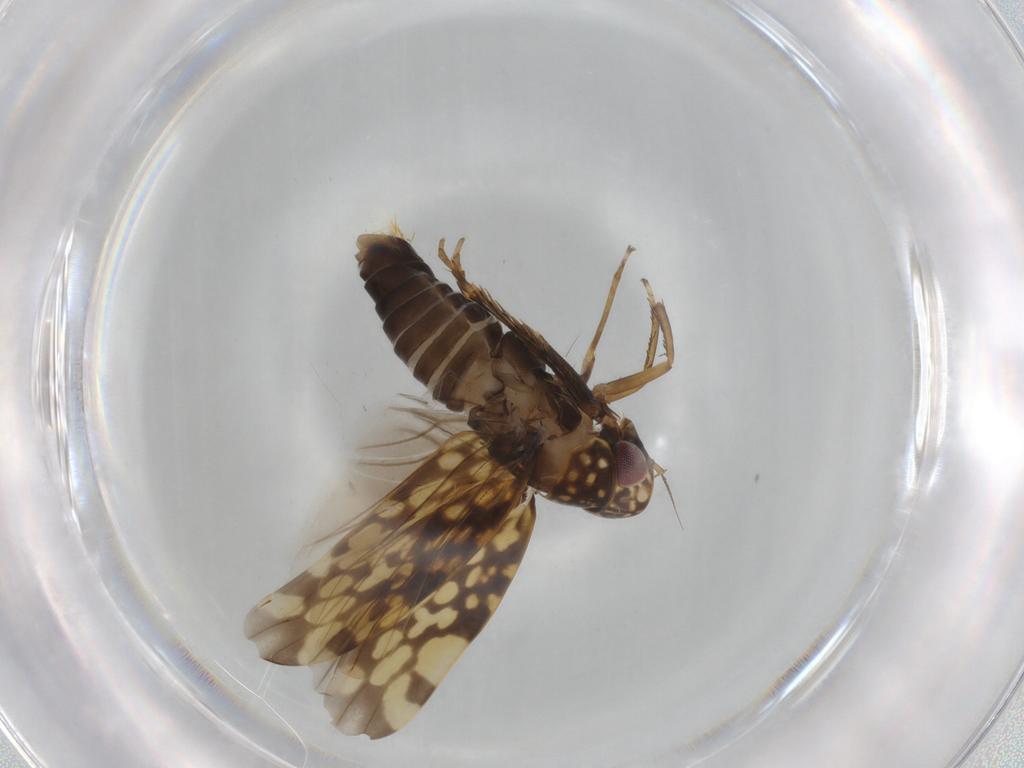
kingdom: Animalia
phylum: Arthropoda
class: Insecta
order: Hemiptera
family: Cicadellidae
